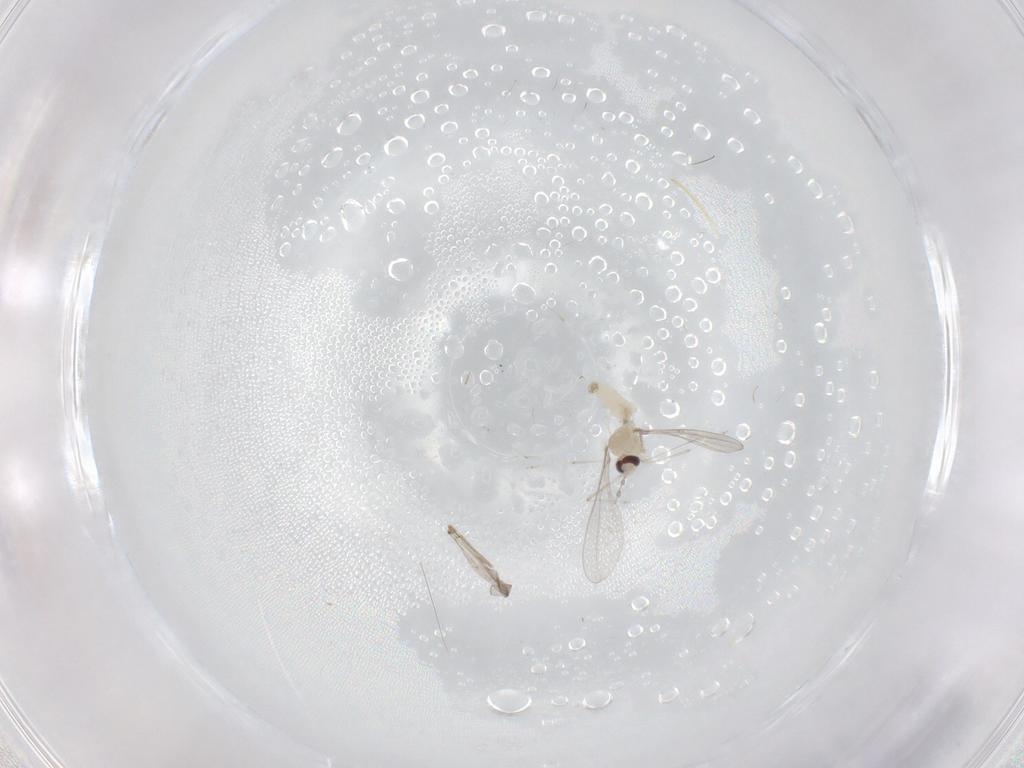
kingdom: Animalia
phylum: Arthropoda
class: Insecta
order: Diptera
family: Cecidomyiidae
